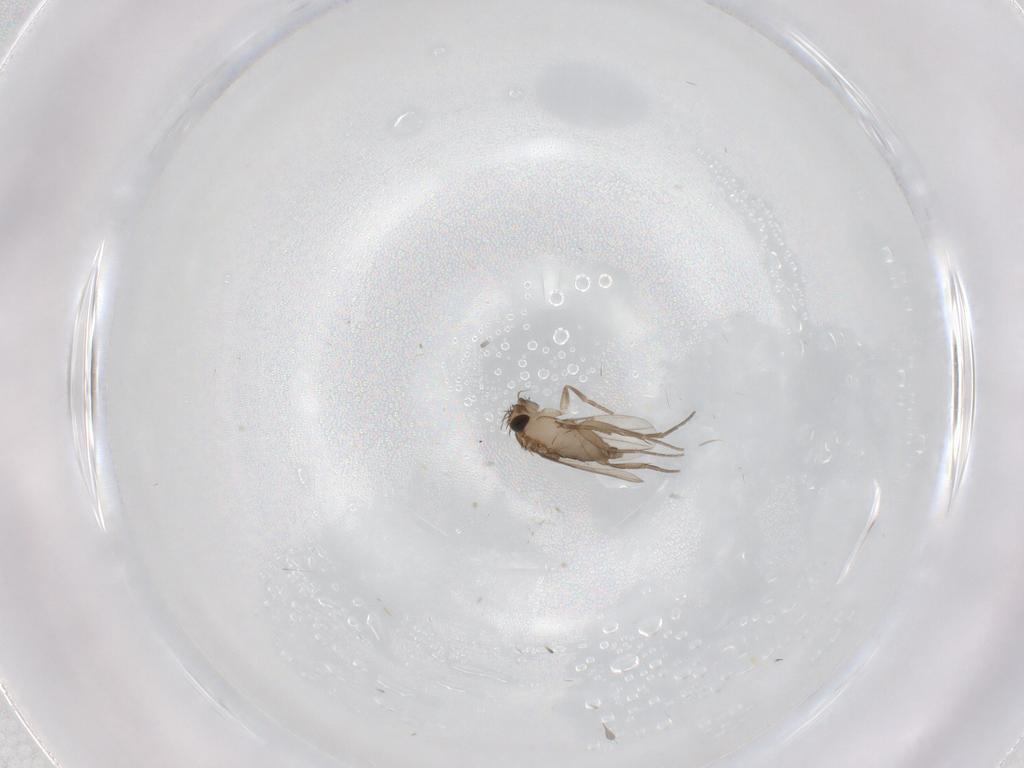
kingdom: Animalia
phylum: Arthropoda
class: Insecta
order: Diptera
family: Phoridae
